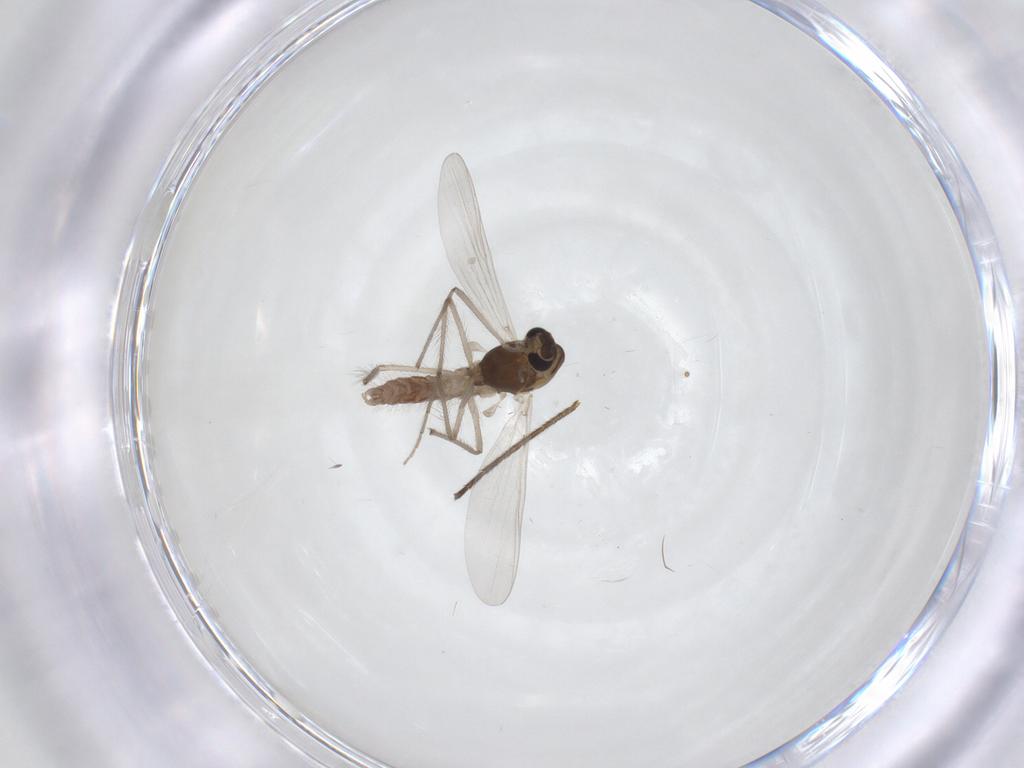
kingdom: Animalia
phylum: Arthropoda
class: Insecta
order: Diptera
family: Chironomidae
